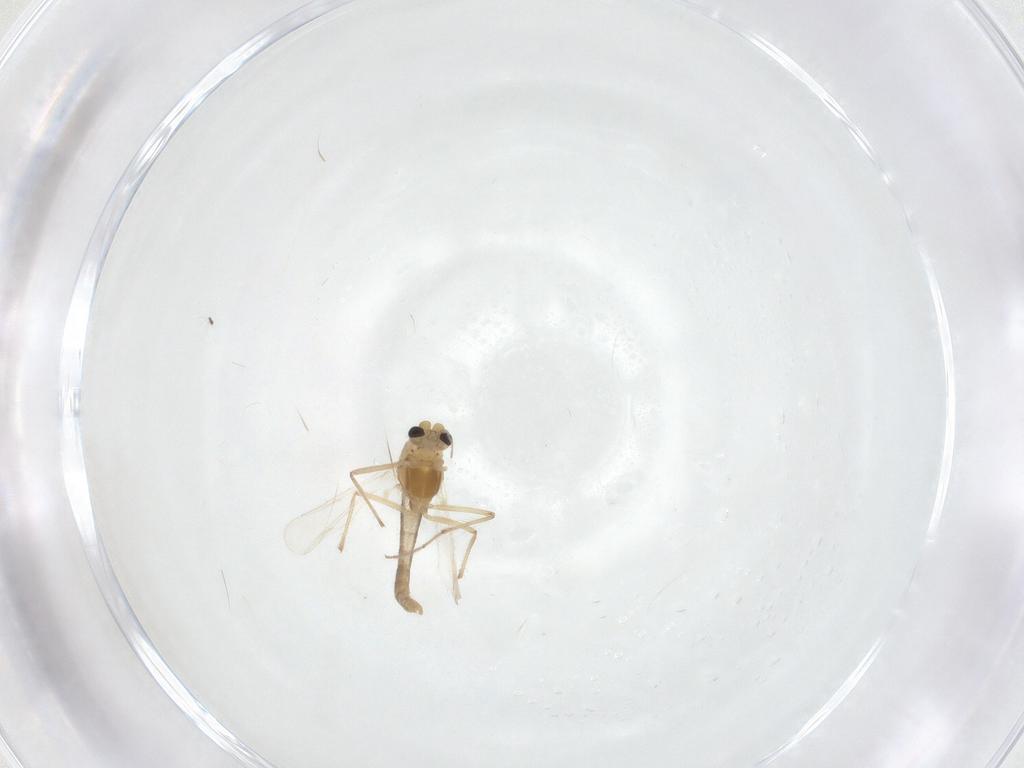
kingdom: Animalia
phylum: Arthropoda
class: Insecta
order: Diptera
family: Chironomidae
